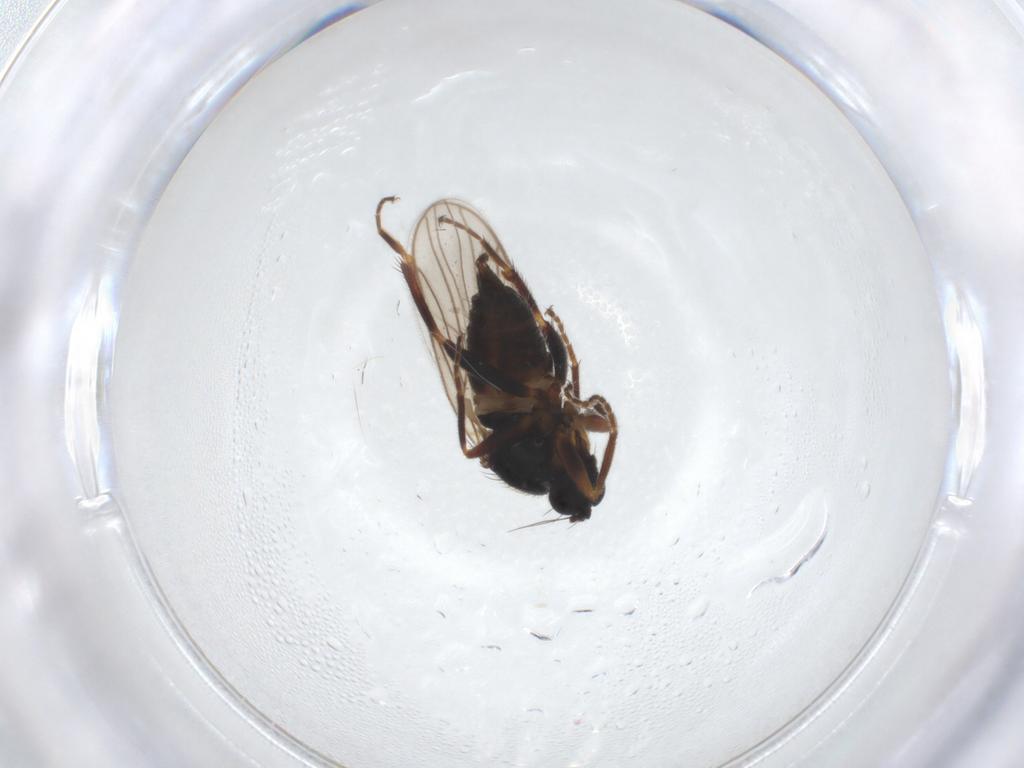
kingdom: Animalia
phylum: Arthropoda
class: Insecta
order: Diptera
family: Hybotidae
